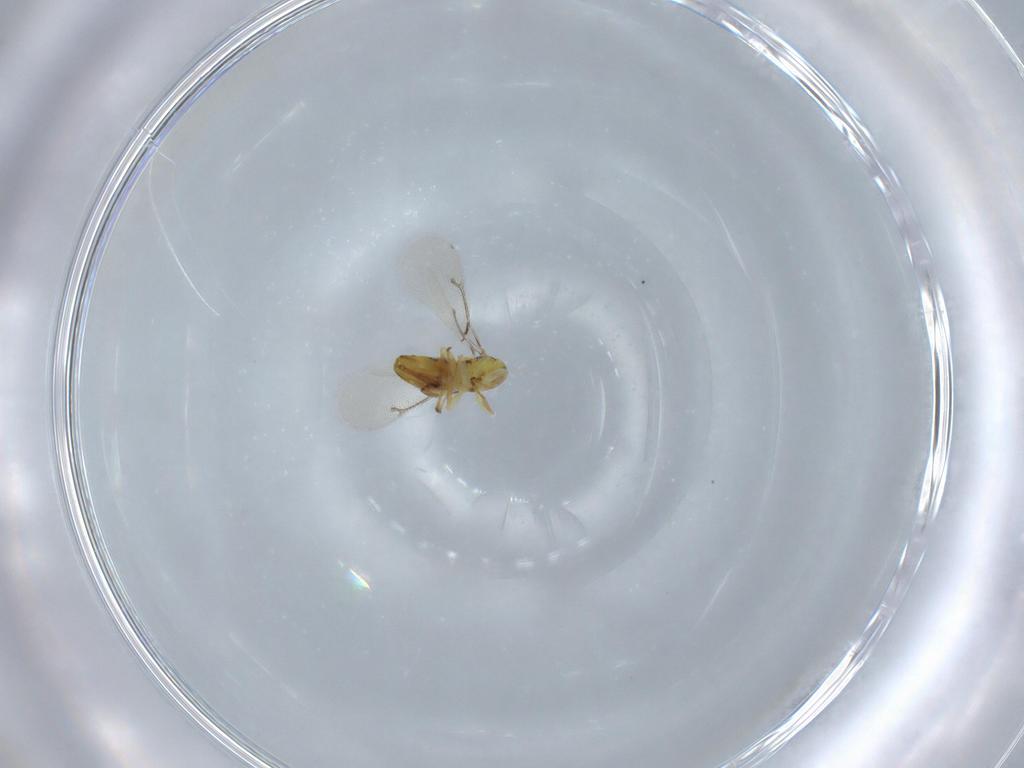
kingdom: Animalia
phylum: Arthropoda
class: Insecta
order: Hymenoptera
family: Eulophidae
